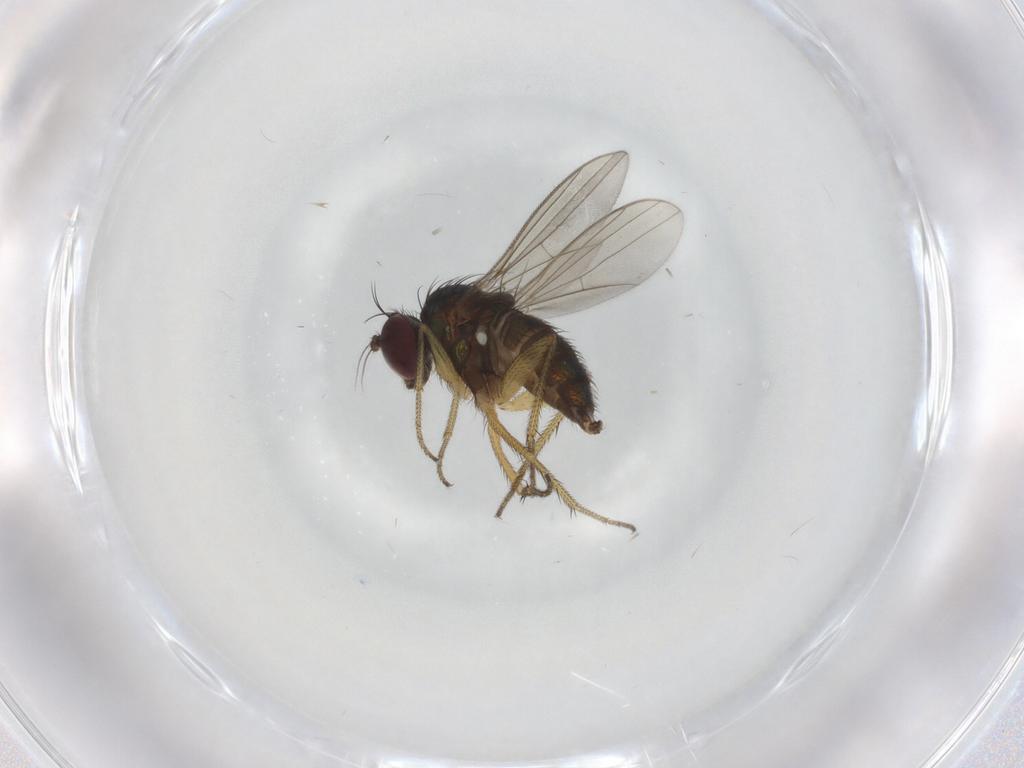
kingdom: Animalia
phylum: Arthropoda
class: Insecta
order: Diptera
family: Dolichopodidae
